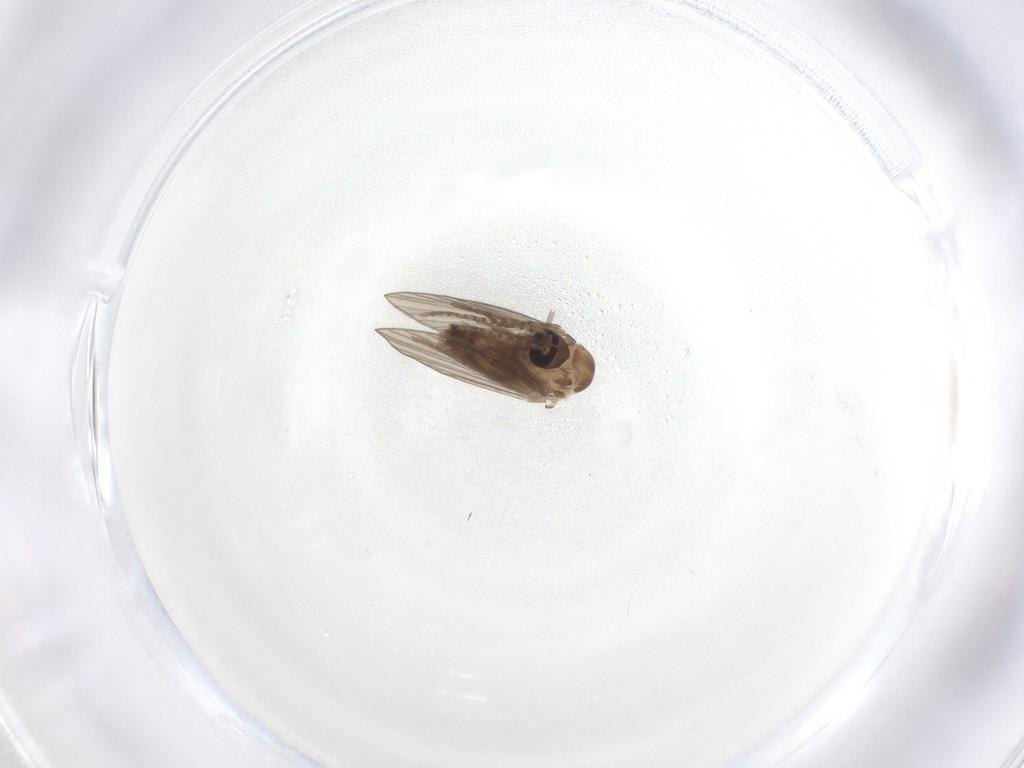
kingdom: Animalia
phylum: Arthropoda
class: Insecta
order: Diptera
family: Psychodidae
